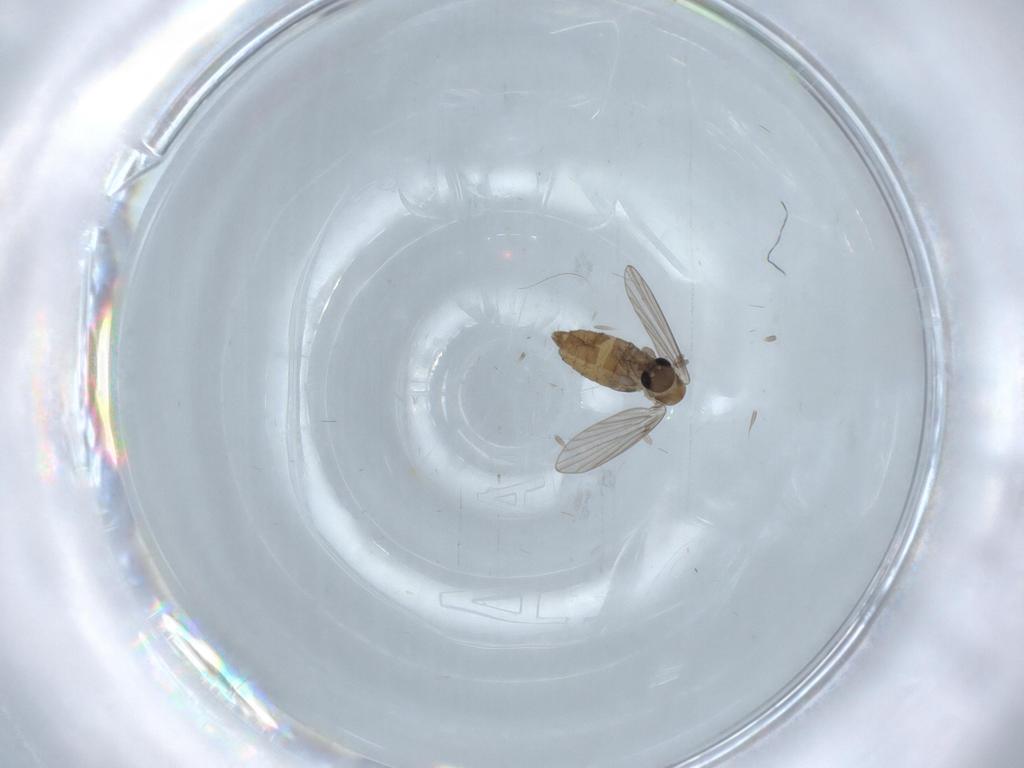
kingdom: Animalia
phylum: Arthropoda
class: Insecta
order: Diptera
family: Tabanidae
